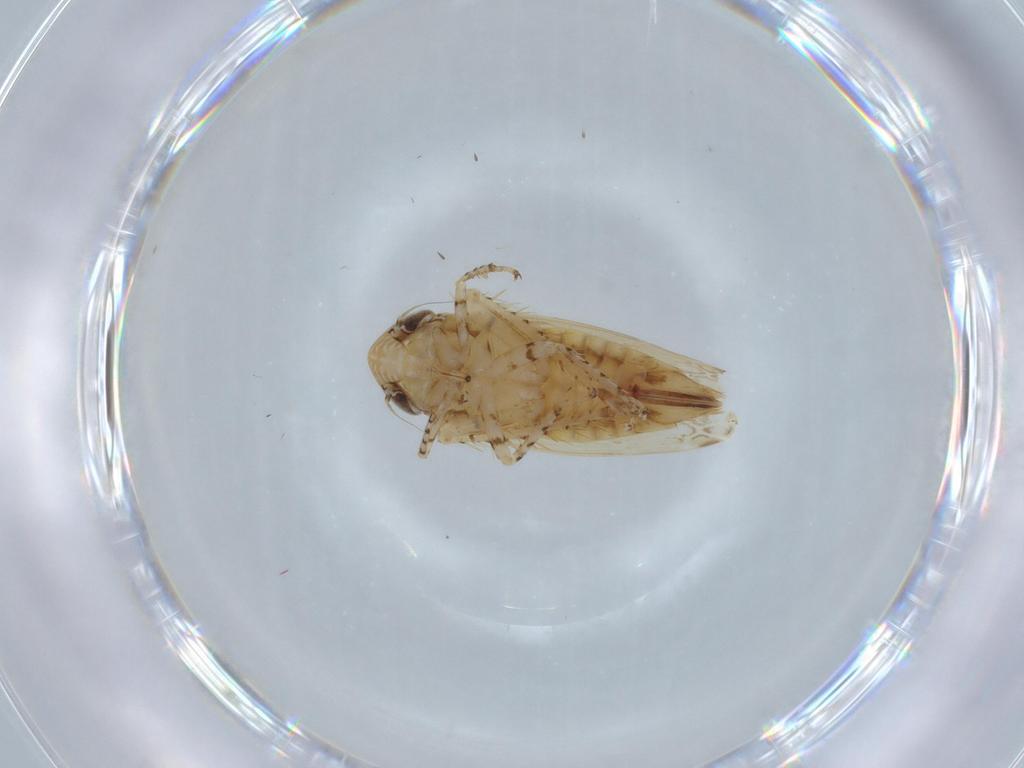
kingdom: Animalia
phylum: Arthropoda
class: Insecta
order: Hemiptera
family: Cicadellidae
